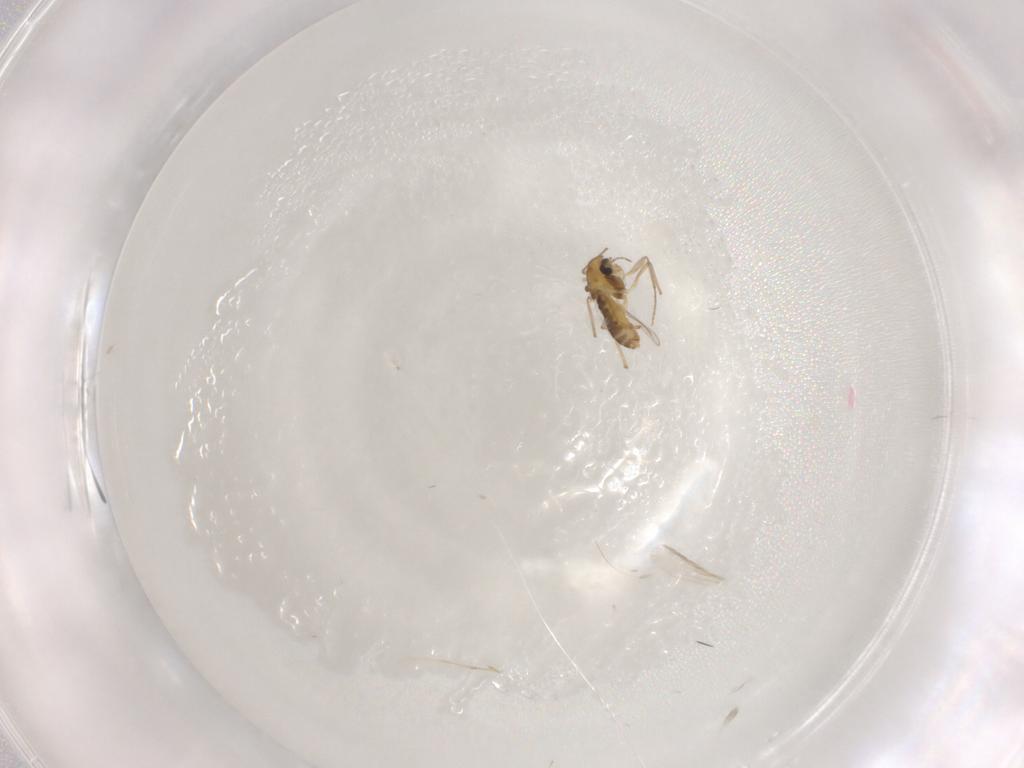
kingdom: Animalia
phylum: Arthropoda
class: Insecta
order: Diptera
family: Chironomidae
